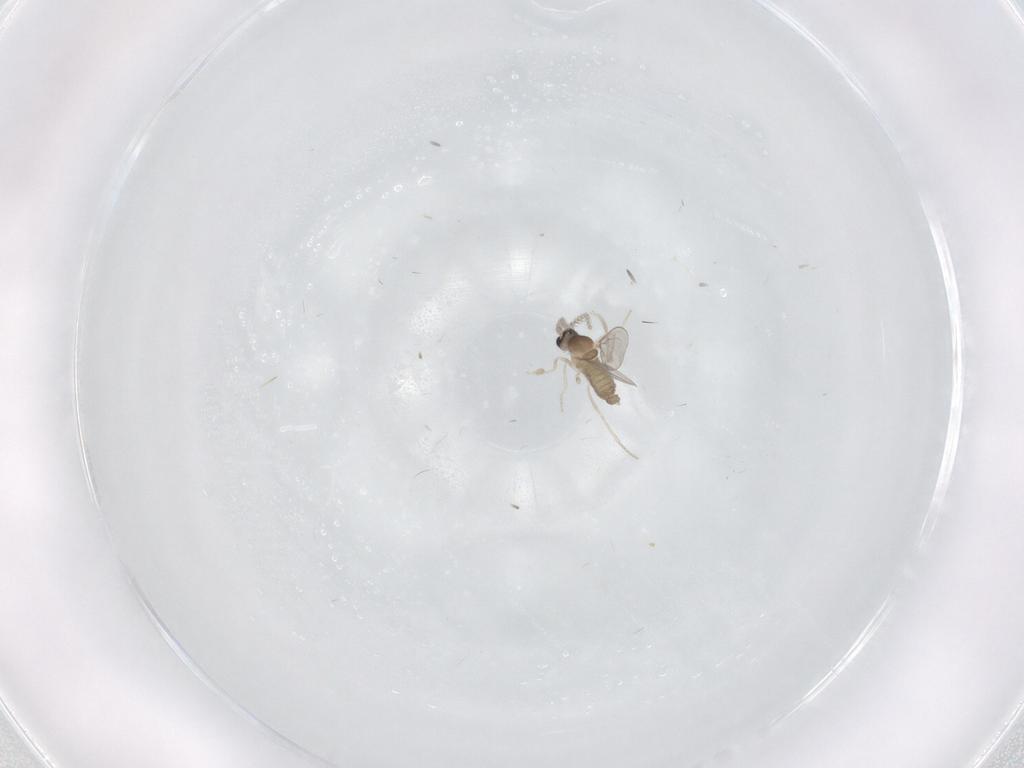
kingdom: Animalia
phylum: Arthropoda
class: Insecta
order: Diptera
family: Cecidomyiidae
